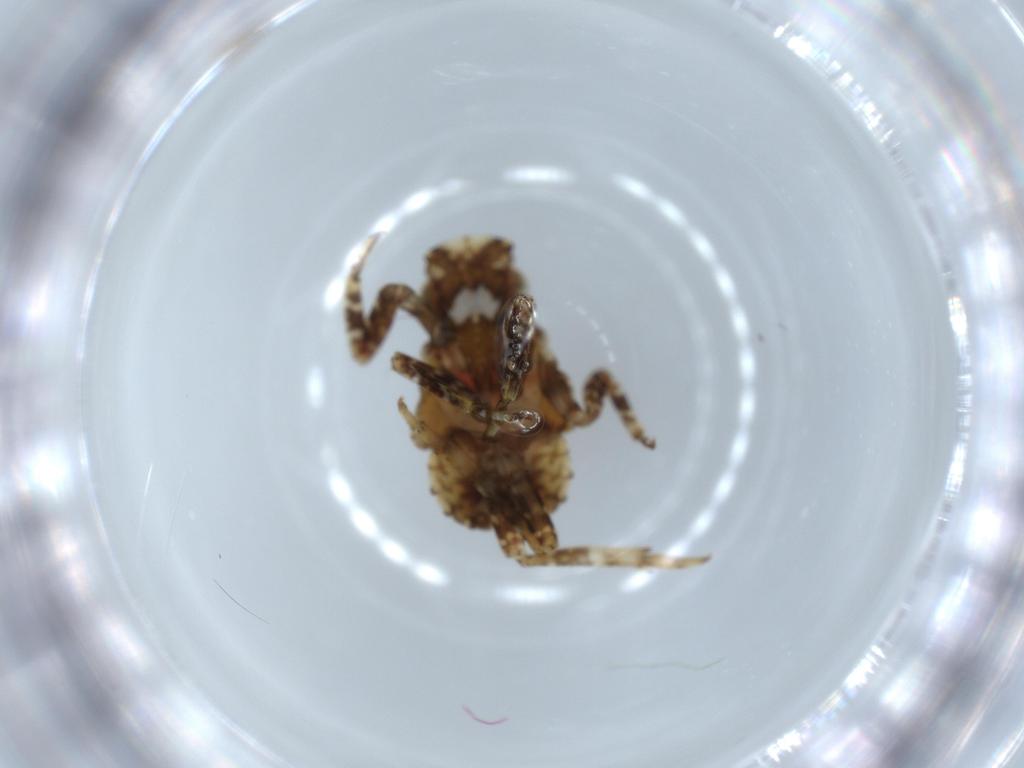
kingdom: Animalia
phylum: Arthropoda
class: Insecta
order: Hemiptera
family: Fulgoridae
